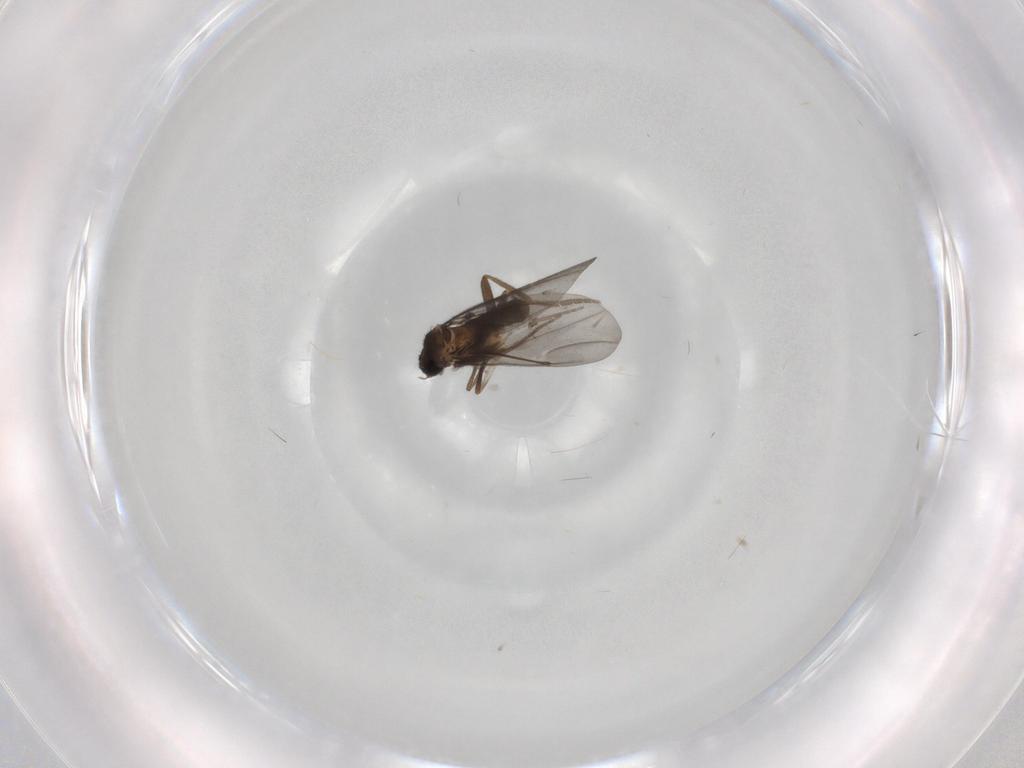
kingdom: Animalia
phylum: Arthropoda
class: Insecta
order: Diptera
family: Phoridae
